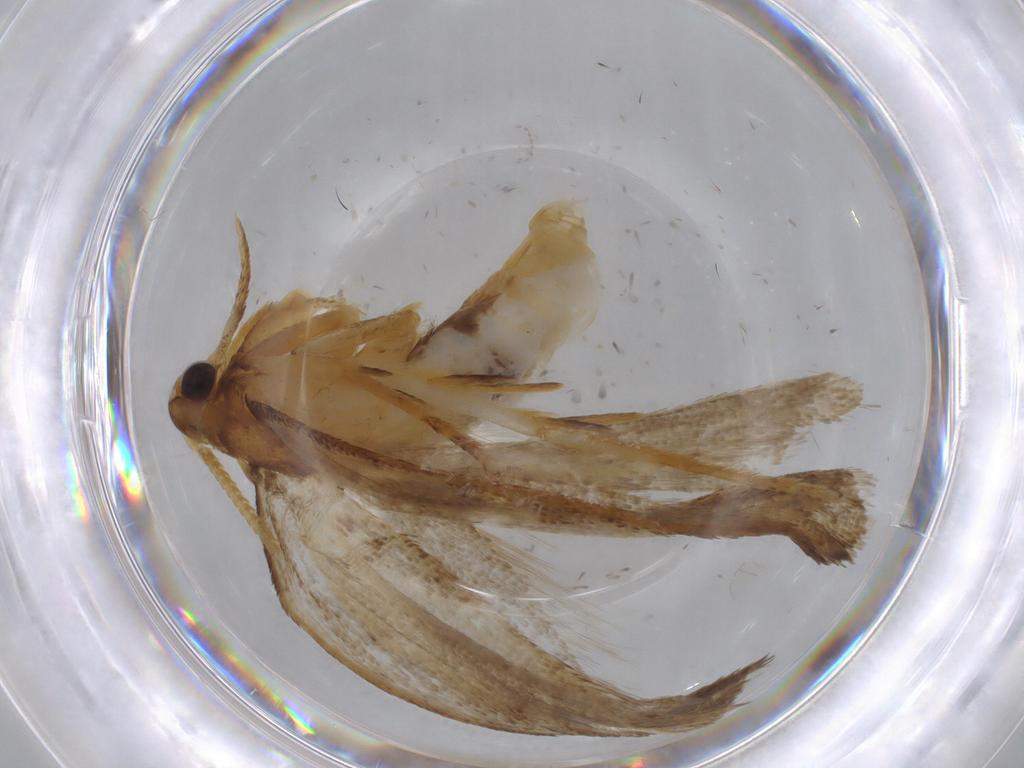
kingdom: Animalia
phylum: Arthropoda
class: Insecta
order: Lepidoptera
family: Lecithoceridae
